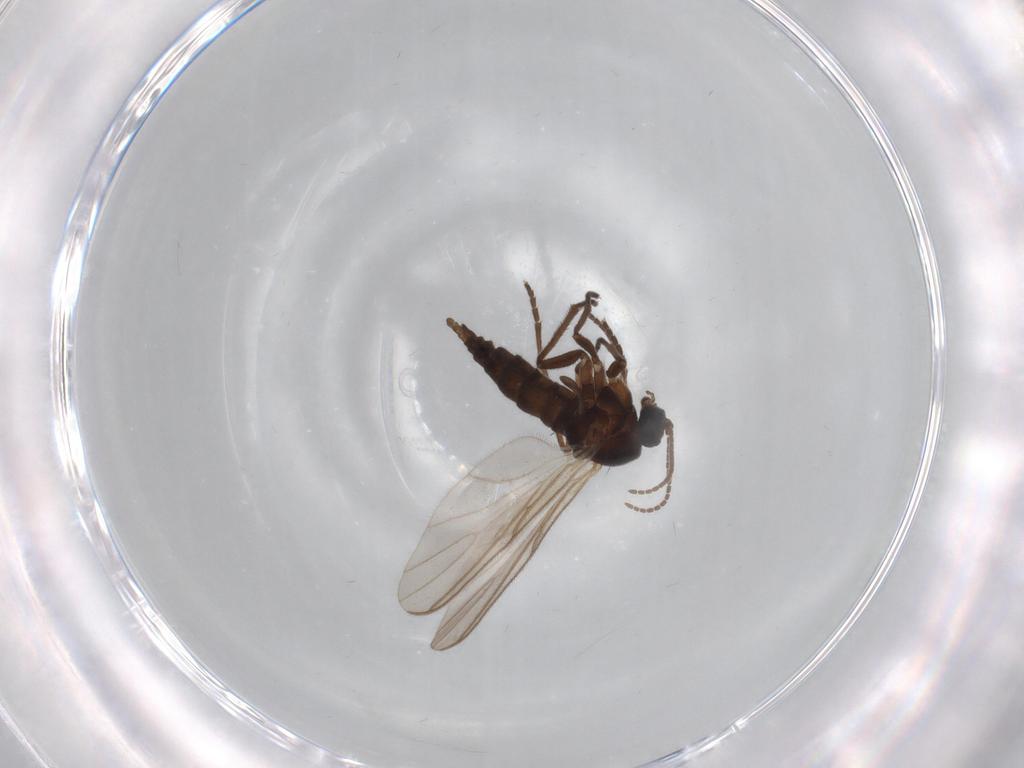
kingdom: Animalia
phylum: Arthropoda
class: Insecta
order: Diptera
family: Sciaridae
